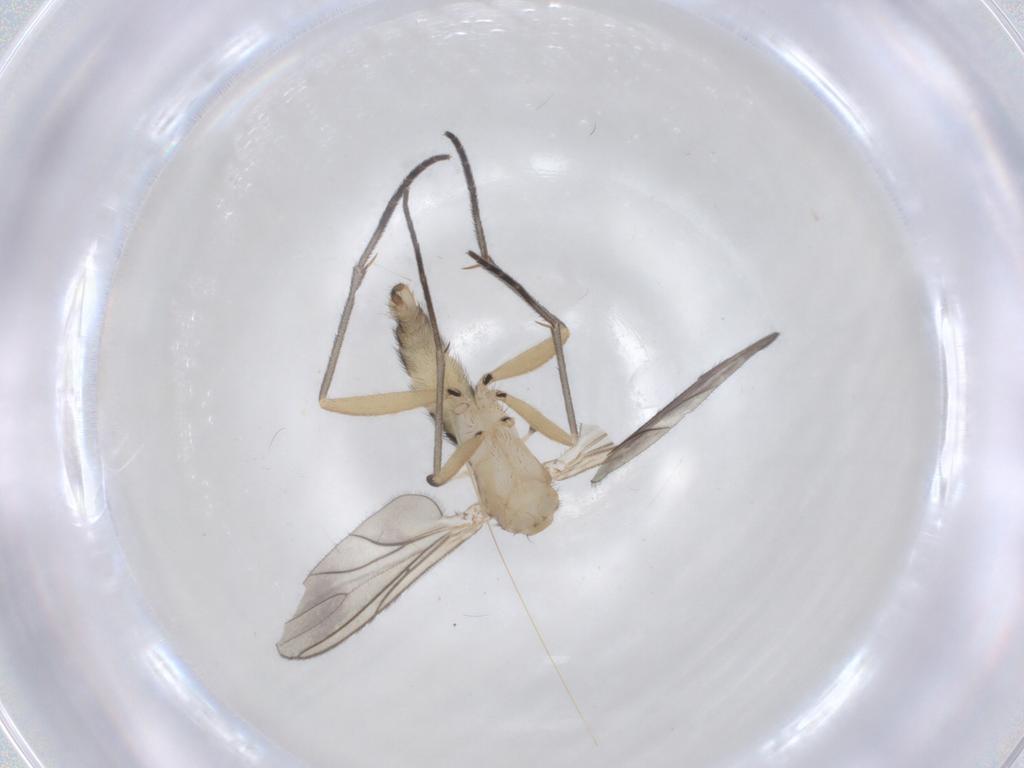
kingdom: Animalia
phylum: Arthropoda
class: Insecta
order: Diptera
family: Sciaridae
